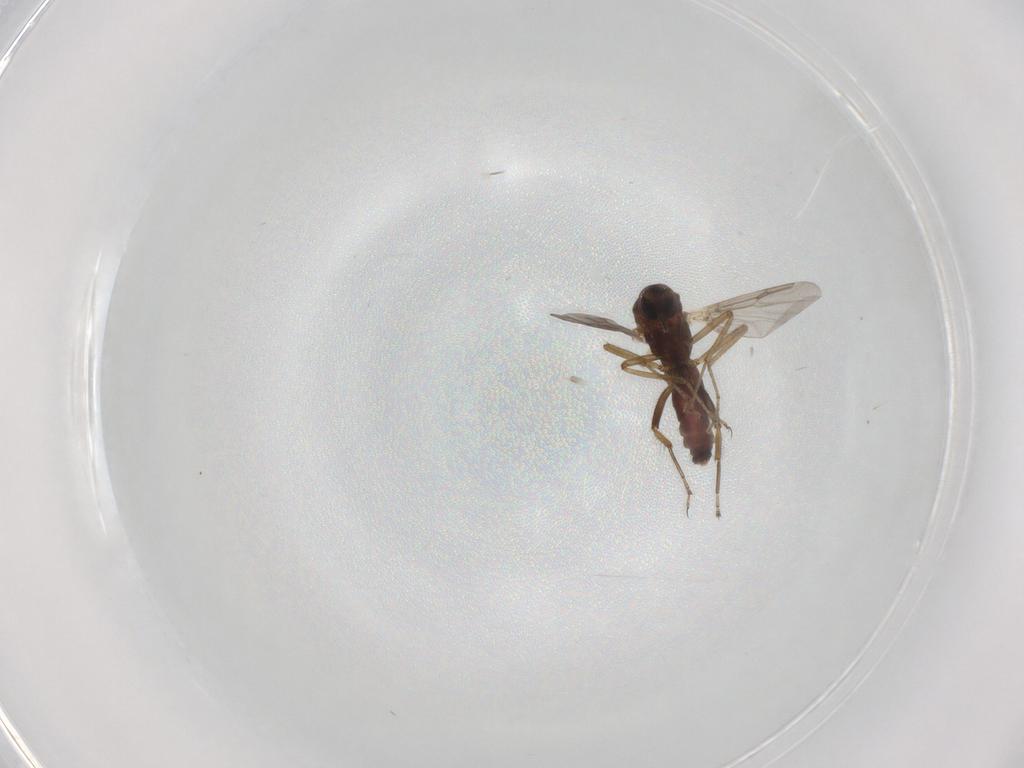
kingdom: Animalia
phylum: Arthropoda
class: Insecta
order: Diptera
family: Ceratopogonidae
